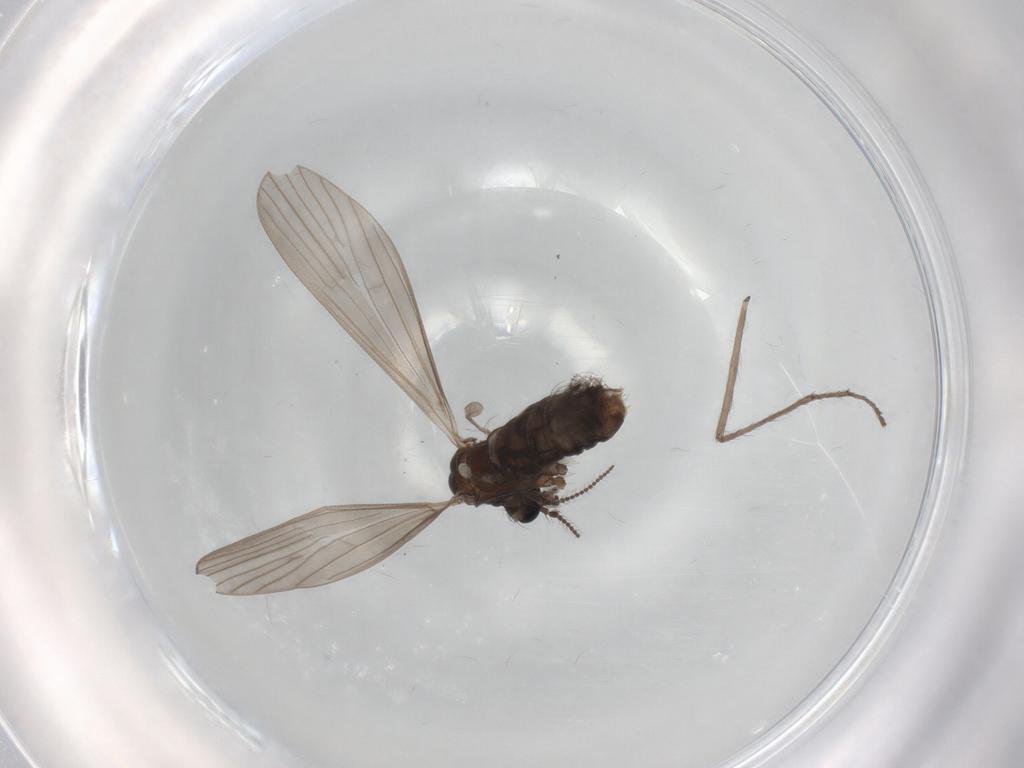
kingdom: Animalia
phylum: Arthropoda
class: Insecta
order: Diptera
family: Limoniidae
